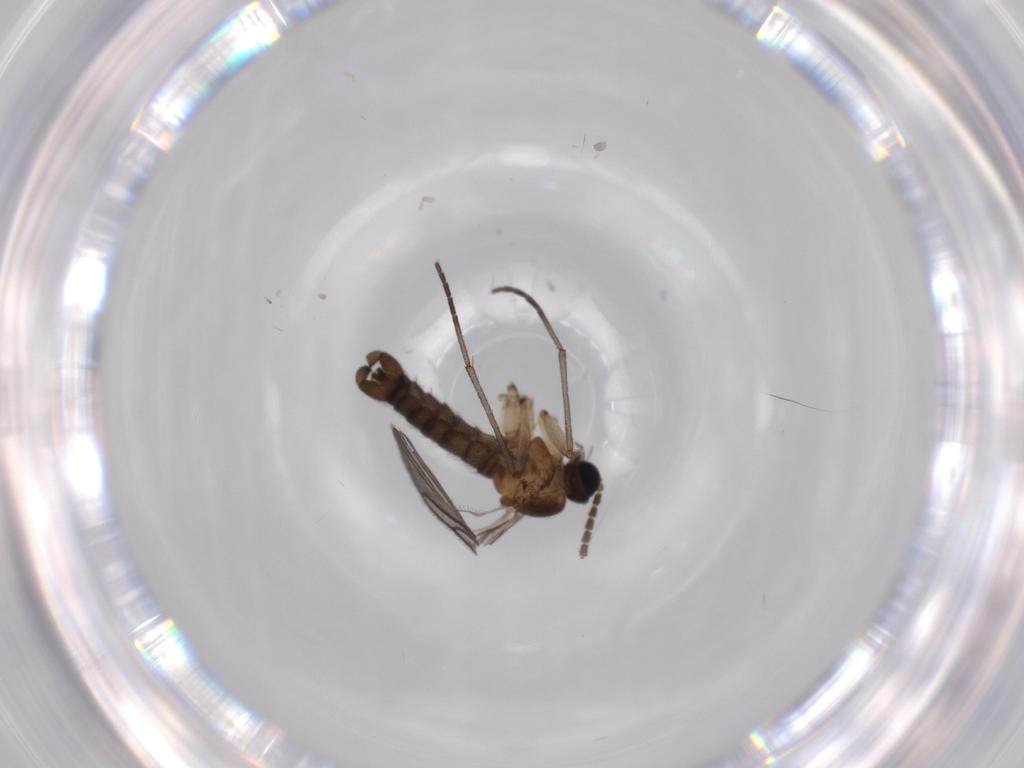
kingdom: Animalia
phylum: Arthropoda
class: Insecta
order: Diptera
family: Sciaridae
